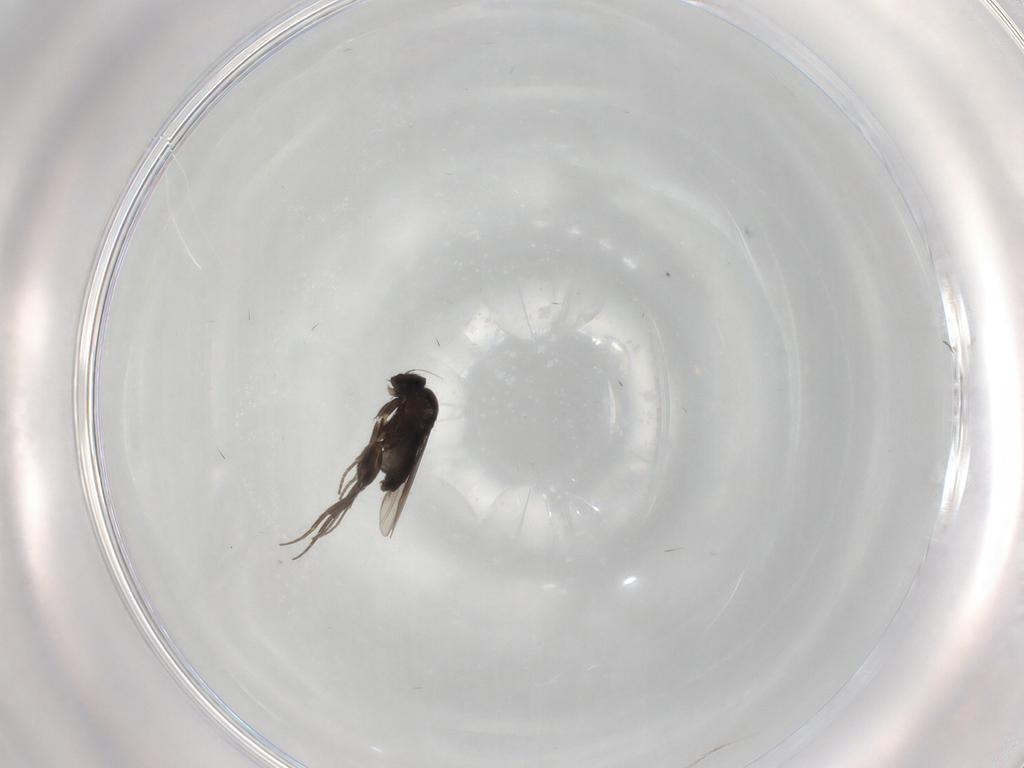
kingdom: Animalia
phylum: Arthropoda
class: Insecta
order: Diptera
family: Phoridae
